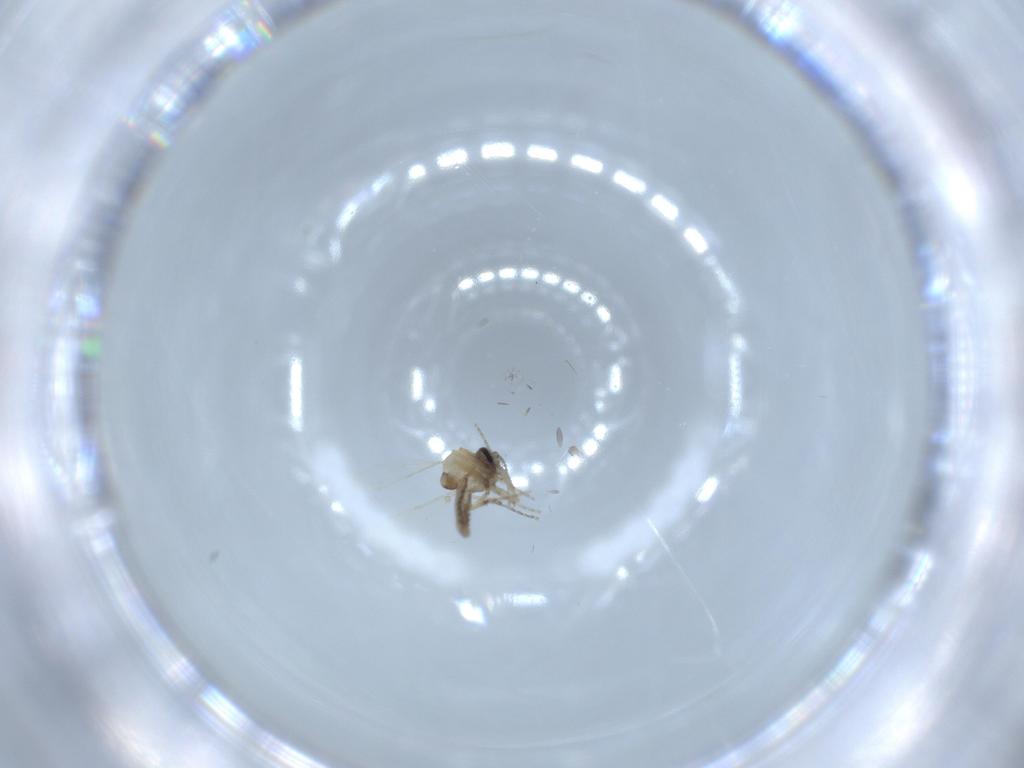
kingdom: Animalia
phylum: Arthropoda
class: Insecta
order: Diptera
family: Cecidomyiidae
